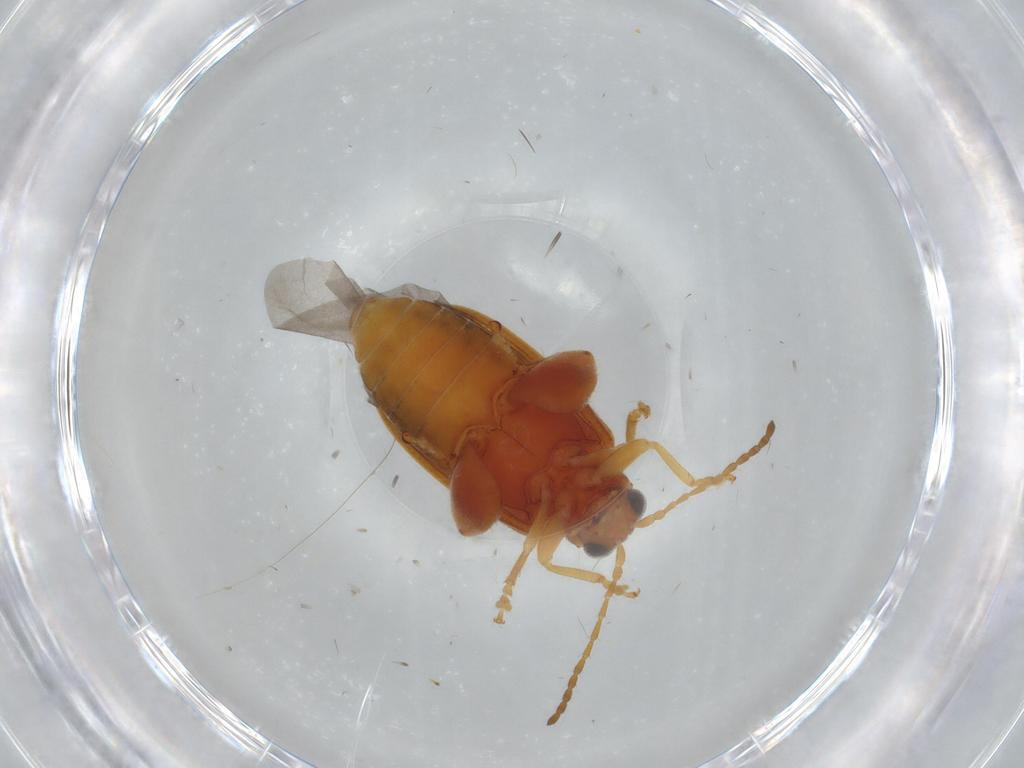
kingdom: Animalia
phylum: Arthropoda
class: Insecta
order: Coleoptera
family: Chrysomelidae
